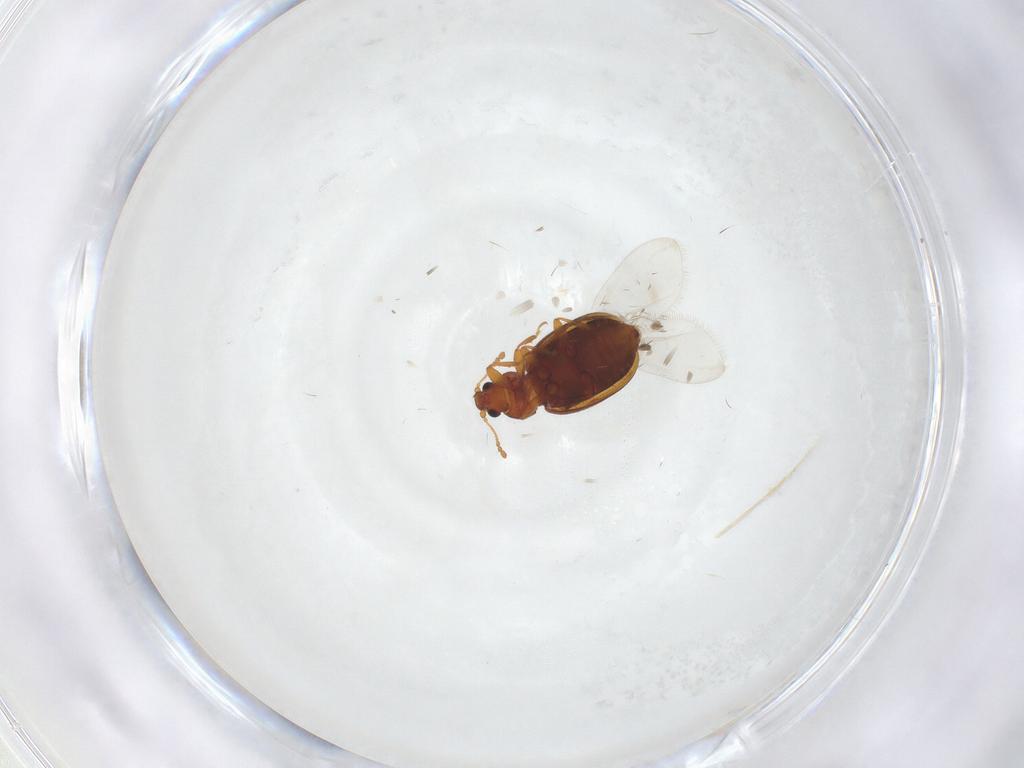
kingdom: Animalia
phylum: Arthropoda
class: Insecta
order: Coleoptera
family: Latridiidae
